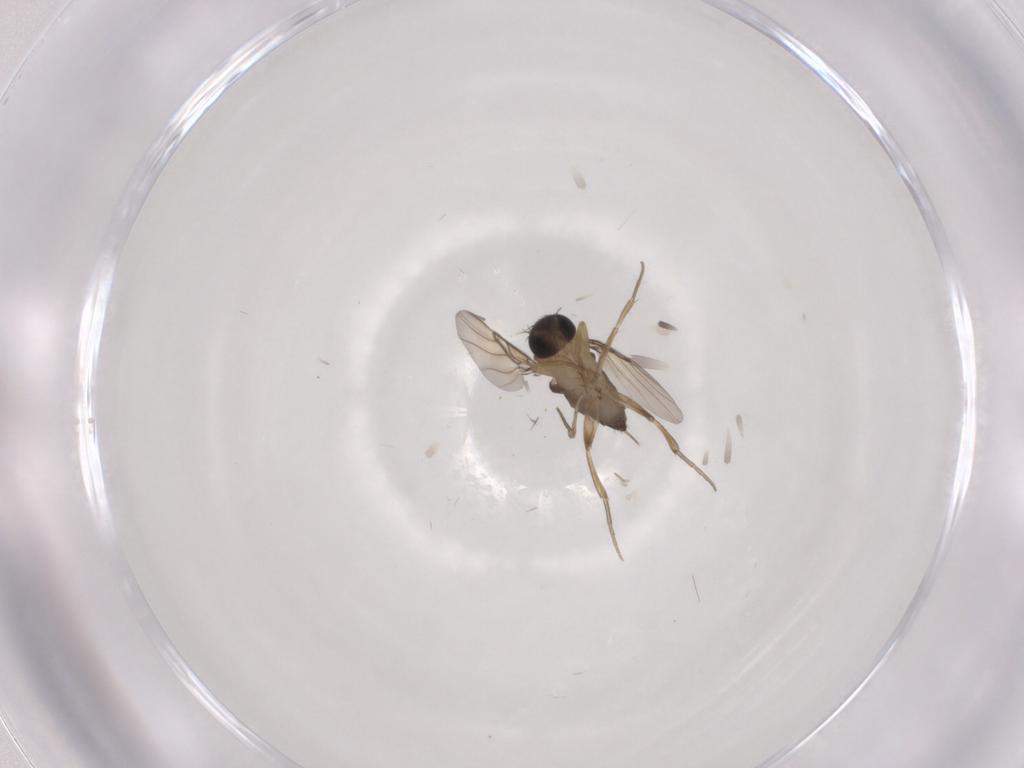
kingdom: Animalia
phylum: Arthropoda
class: Insecta
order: Diptera
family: Phoridae
